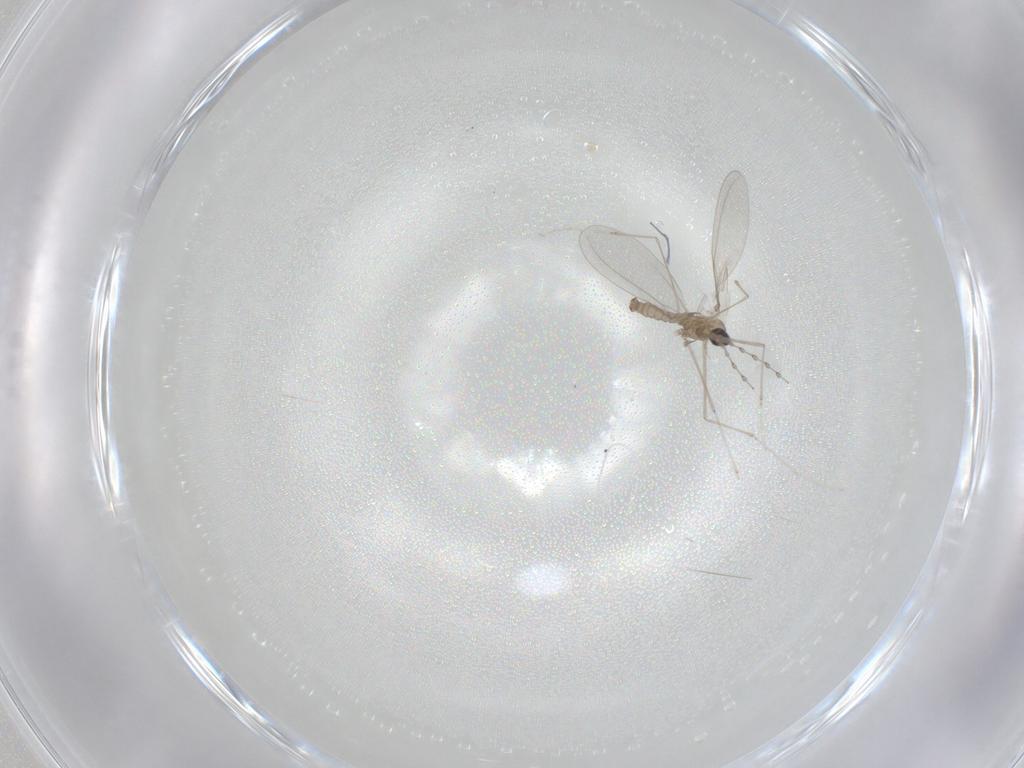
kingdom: Animalia
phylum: Arthropoda
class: Insecta
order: Diptera
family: Cecidomyiidae
